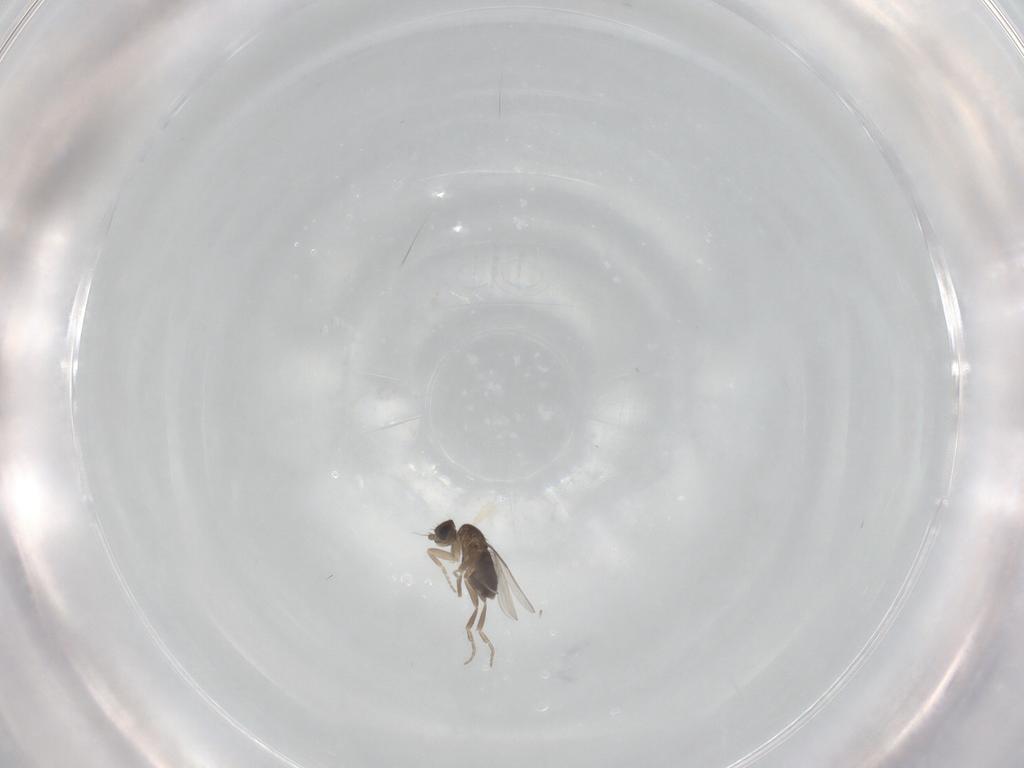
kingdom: Animalia
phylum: Arthropoda
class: Insecta
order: Diptera
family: Phoridae
